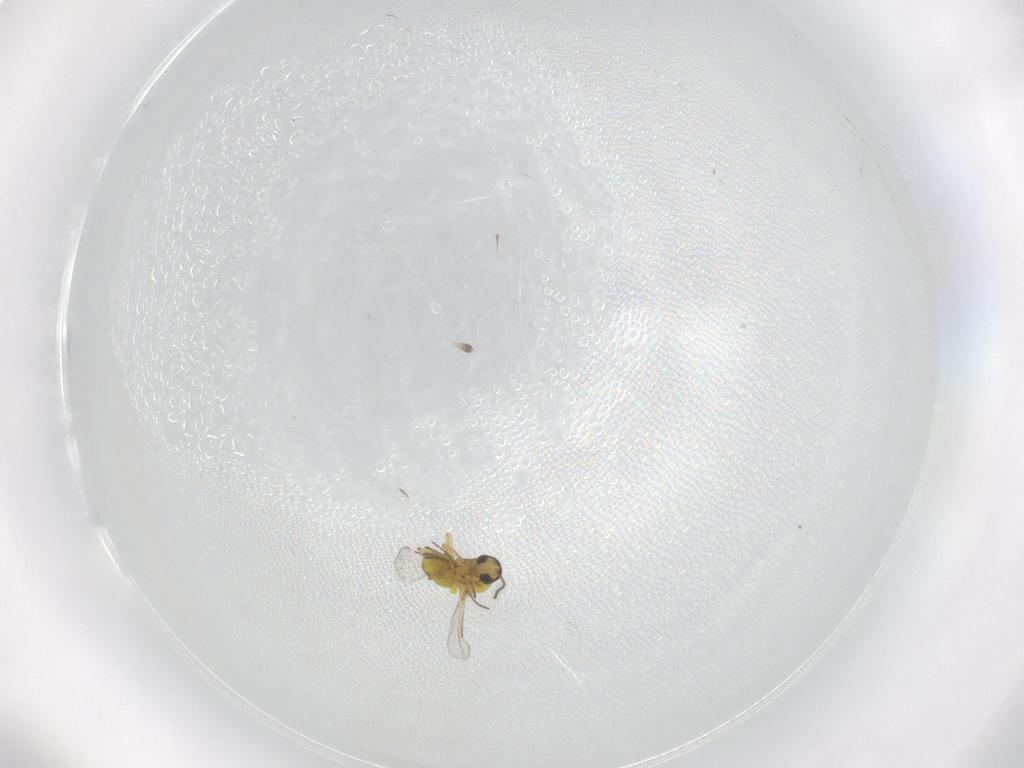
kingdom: Animalia
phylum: Arthropoda
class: Insecta
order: Diptera
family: Ceratopogonidae
